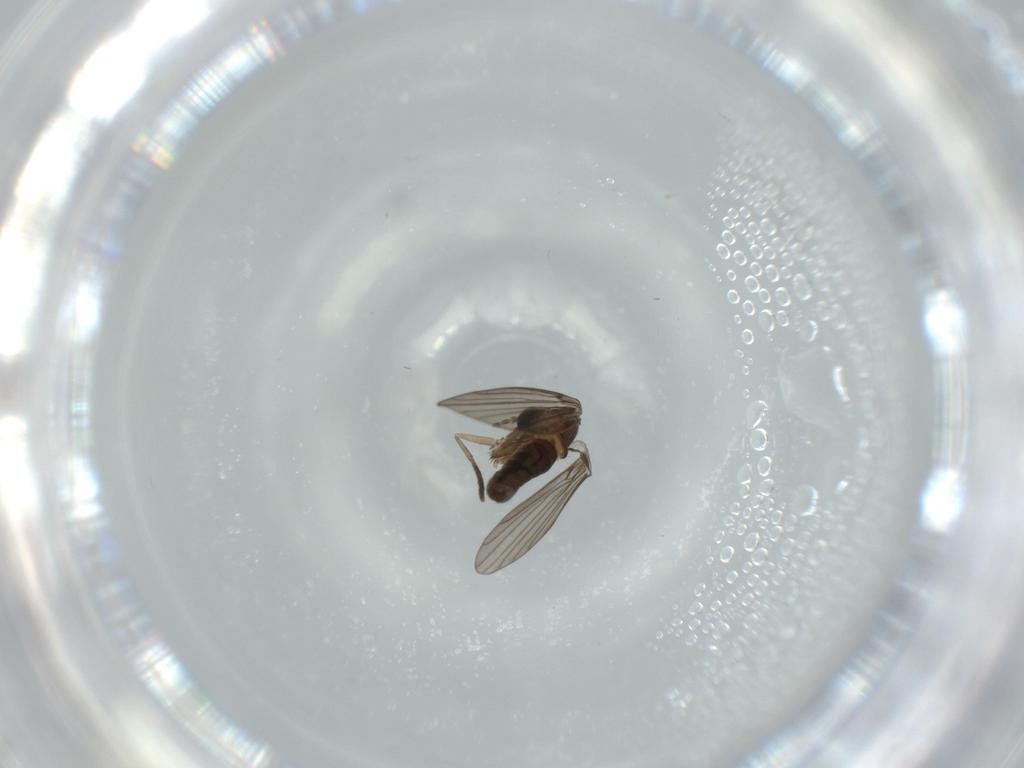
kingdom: Animalia
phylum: Arthropoda
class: Insecta
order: Diptera
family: Psychodidae
